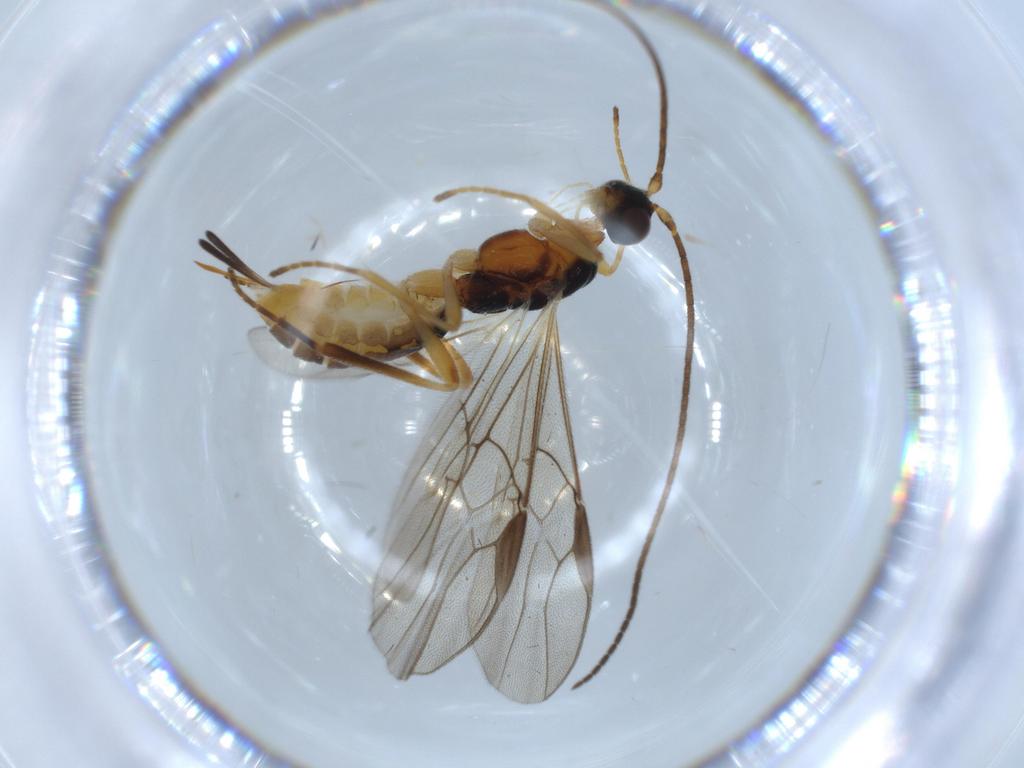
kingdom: Animalia
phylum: Arthropoda
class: Insecta
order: Hymenoptera
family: Braconidae
